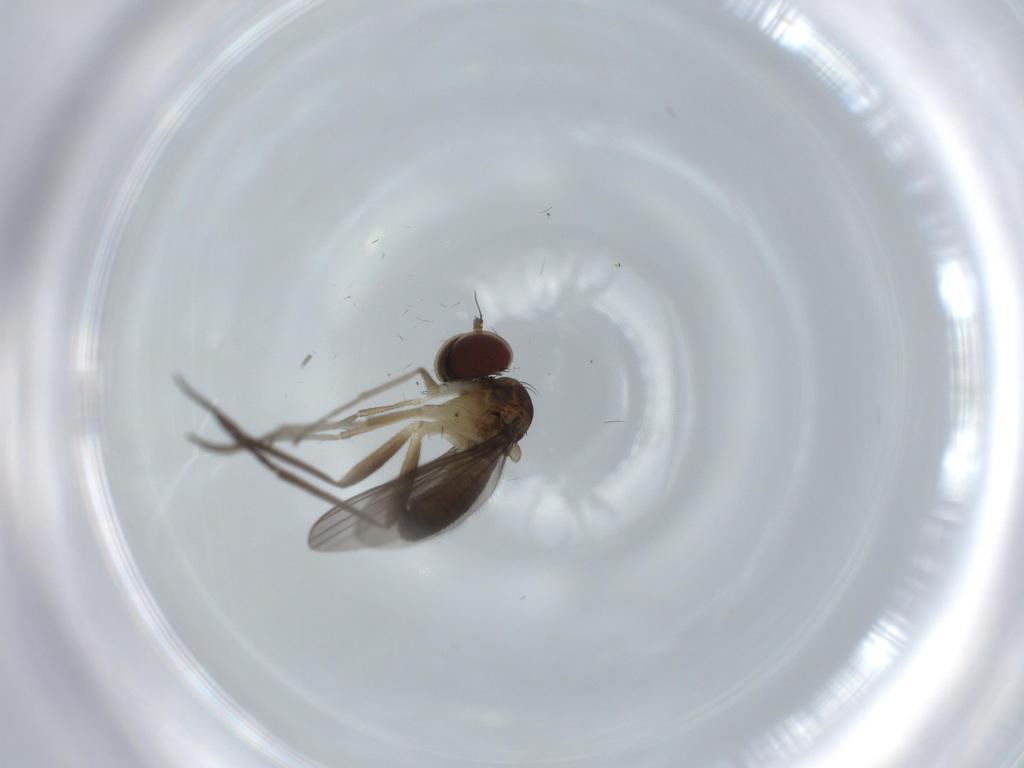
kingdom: Animalia
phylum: Arthropoda
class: Insecta
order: Diptera
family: Dolichopodidae
